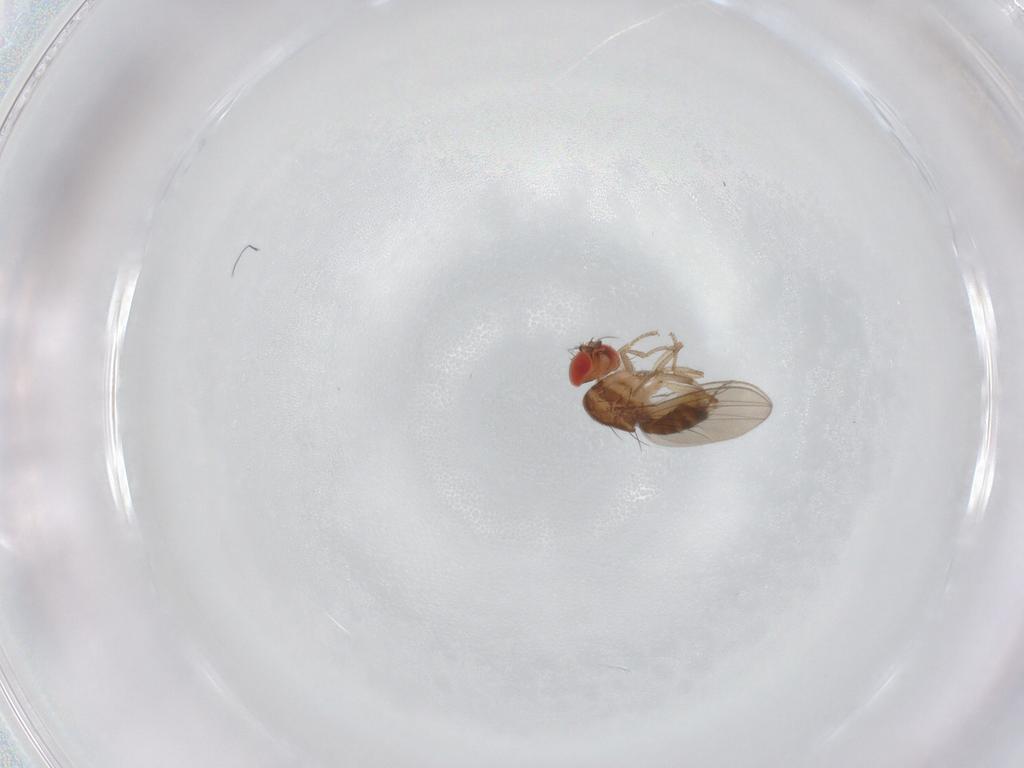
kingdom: Animalia
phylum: Arthropoda
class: Insecta
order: Diptera
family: Drosophilidae
